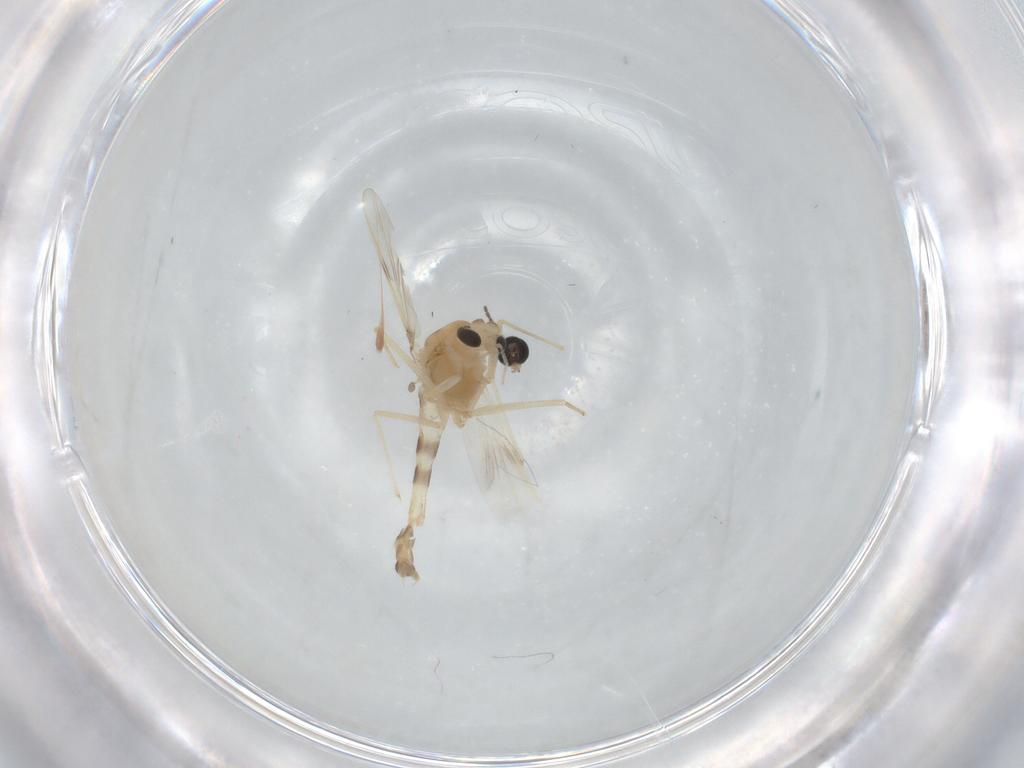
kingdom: Animalia
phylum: Arthropoda
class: Insecta
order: Diptera
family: Chironomidae
